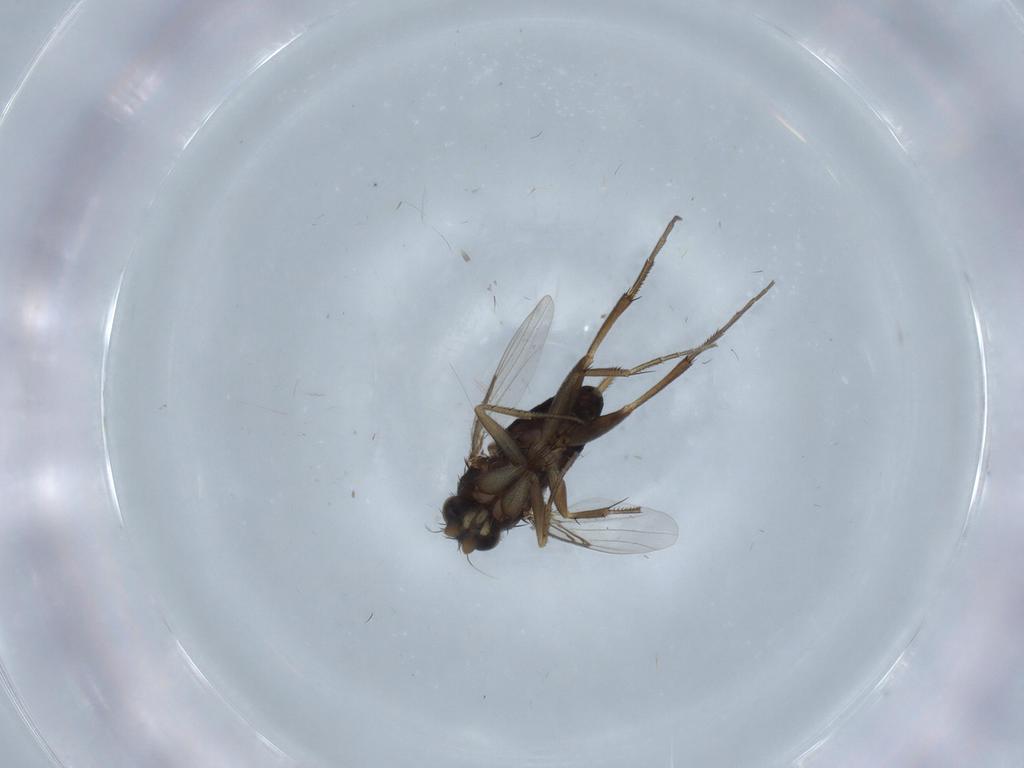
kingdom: Animalia
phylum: Arthropoda
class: Insecta
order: Diptera
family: Phoridae
